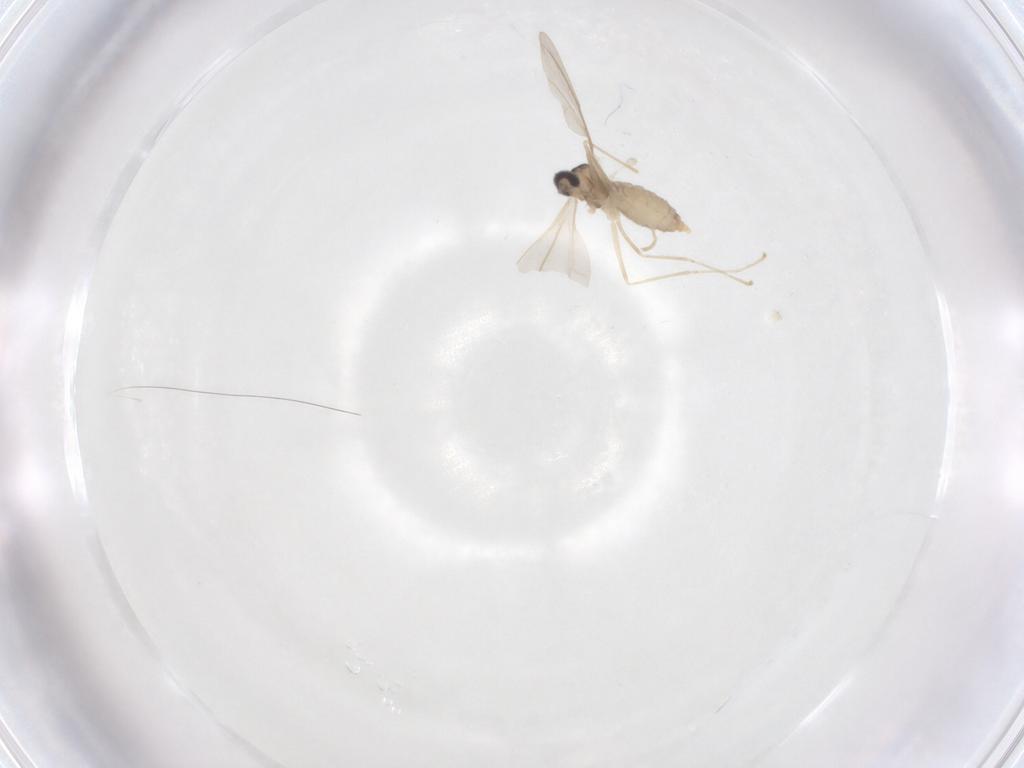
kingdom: Animalia
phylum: Arthropoda
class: Insecta
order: Diptera
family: Cecidomyiidae
